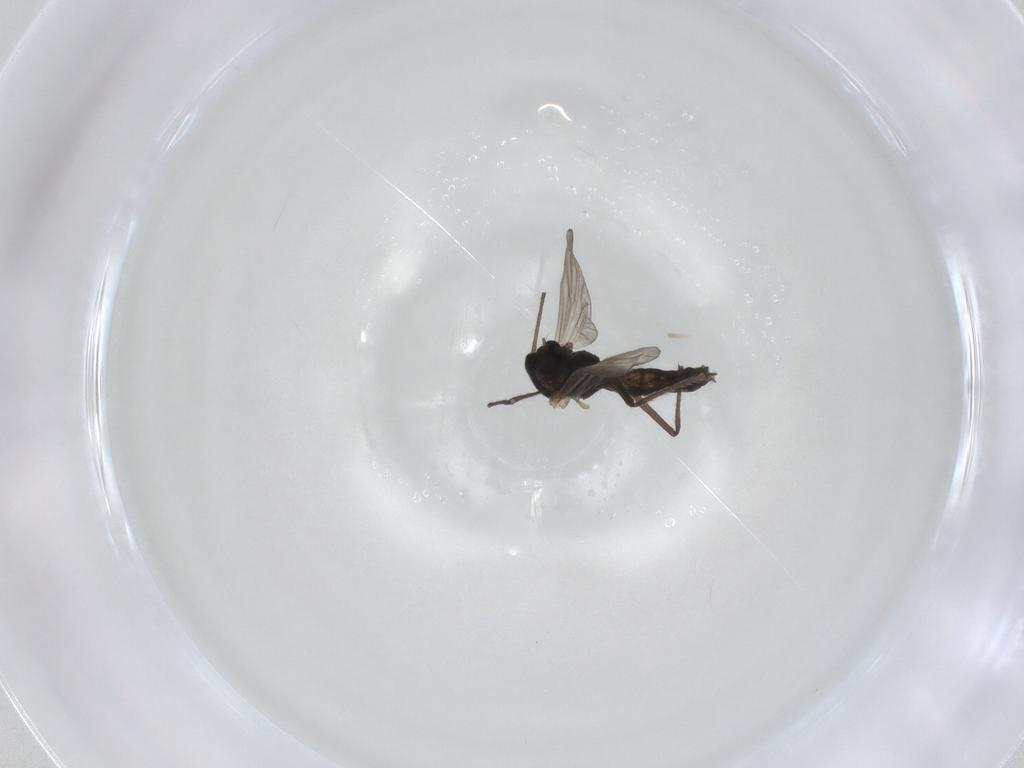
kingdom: Animalia
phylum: Arthropoda
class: Insecta
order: Diptera
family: Chironomidae
